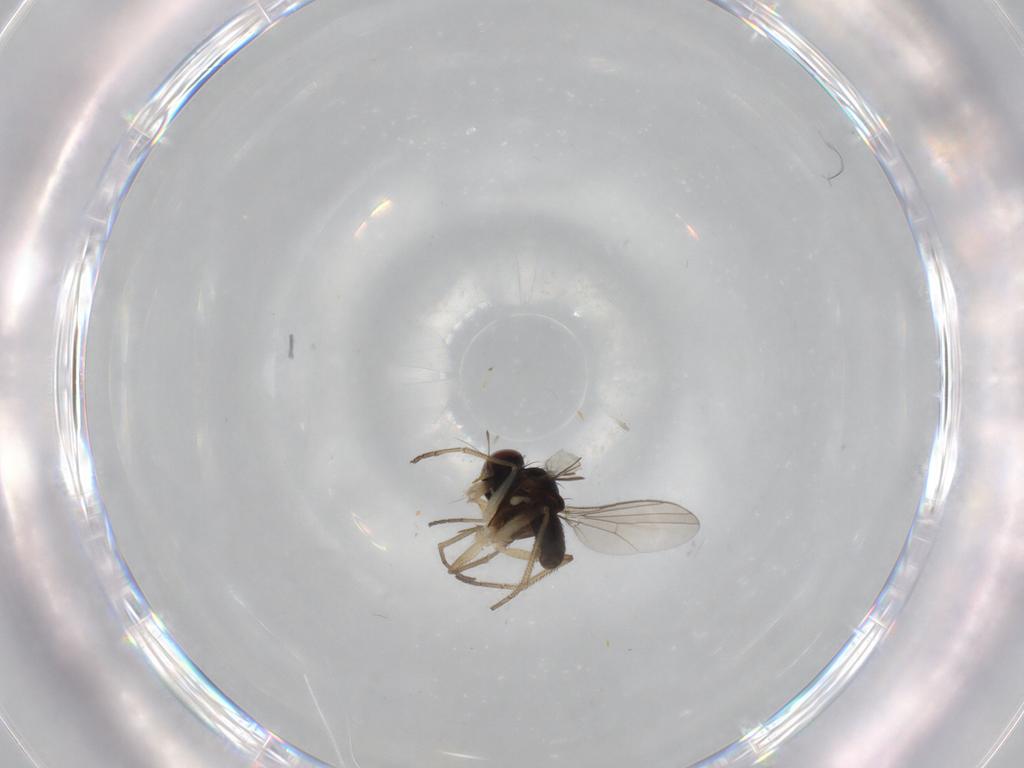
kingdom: Animalia
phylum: Arthropoda
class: Insecta
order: Diptera
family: Dolichopodidae
